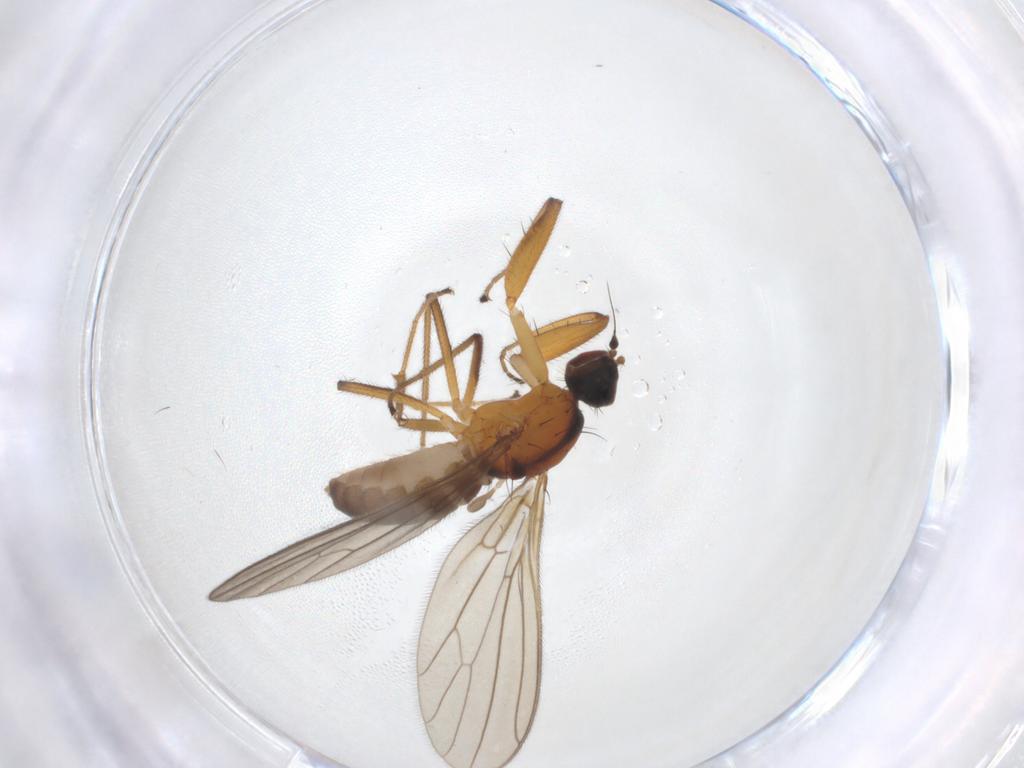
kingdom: Animalia
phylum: Arthropoda
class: Insecta
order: Diptera
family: Empididae
